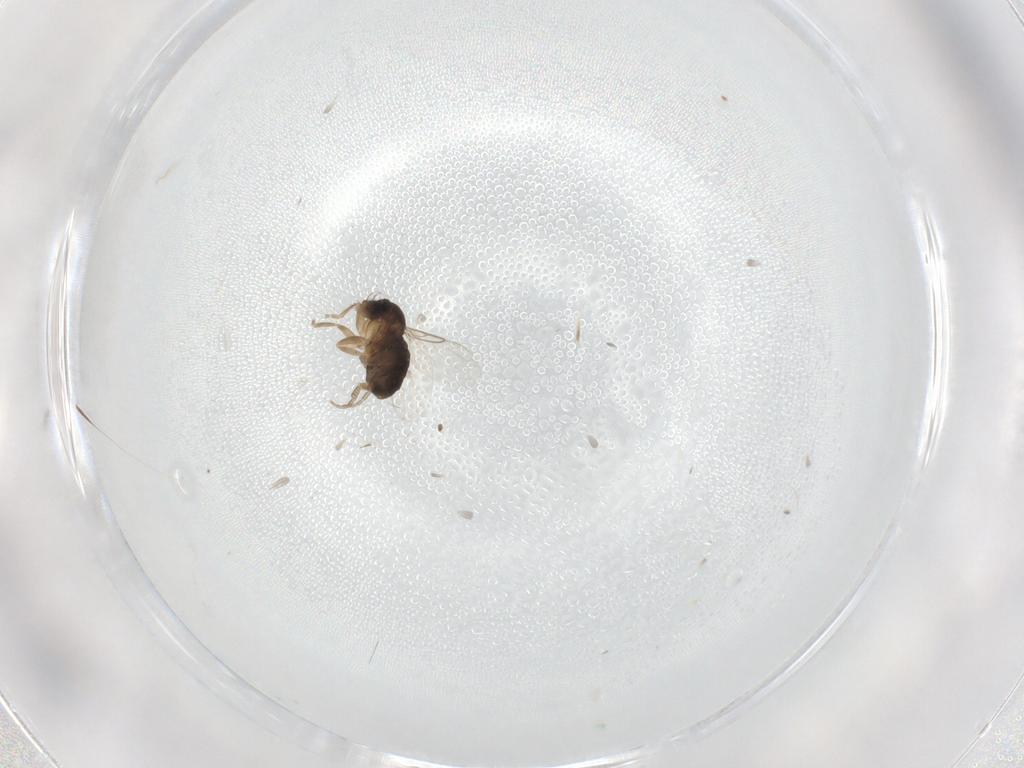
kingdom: Animalia
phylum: Arthropoda
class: Insecta
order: Diptera
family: Phoridae
